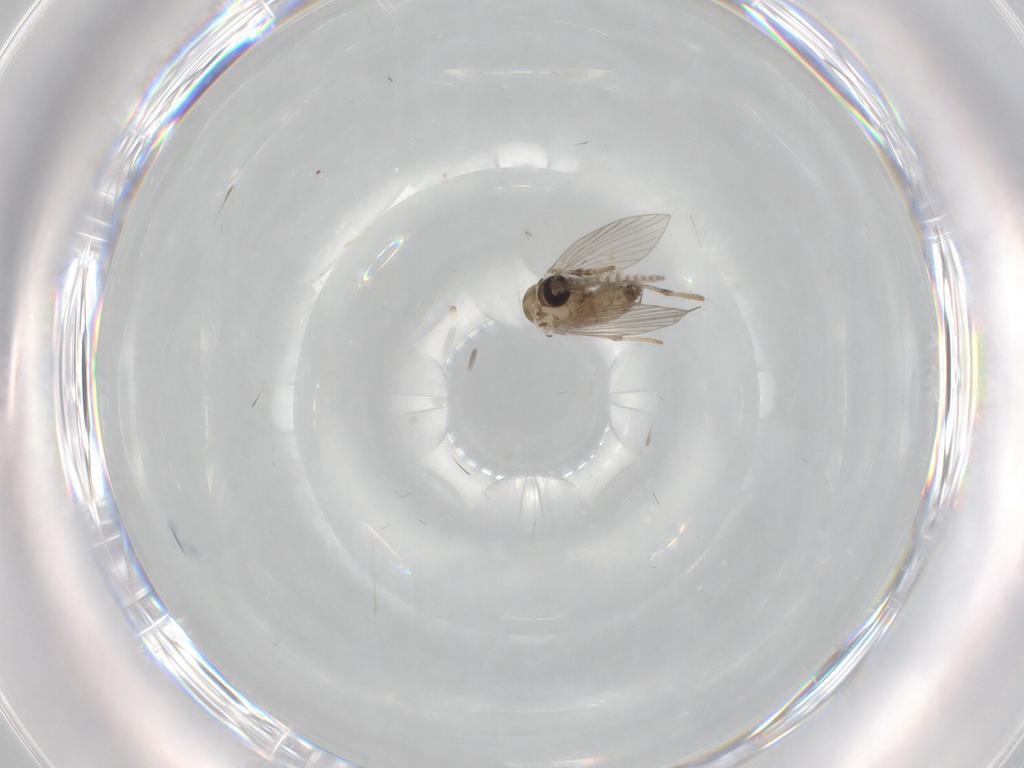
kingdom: Animalia
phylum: Arthropoda
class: Insecta
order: Diptera
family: Psychodidae
